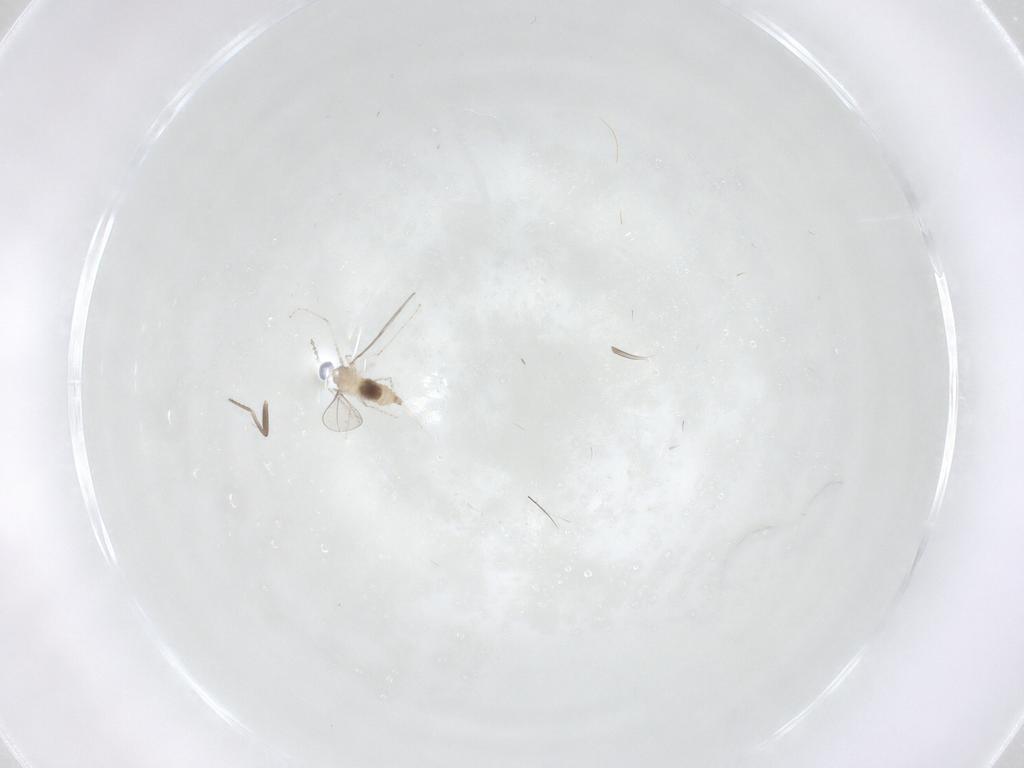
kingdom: Animalia
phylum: Arthropoda
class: Insecta
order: Diptera
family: Cecidomyiidae
